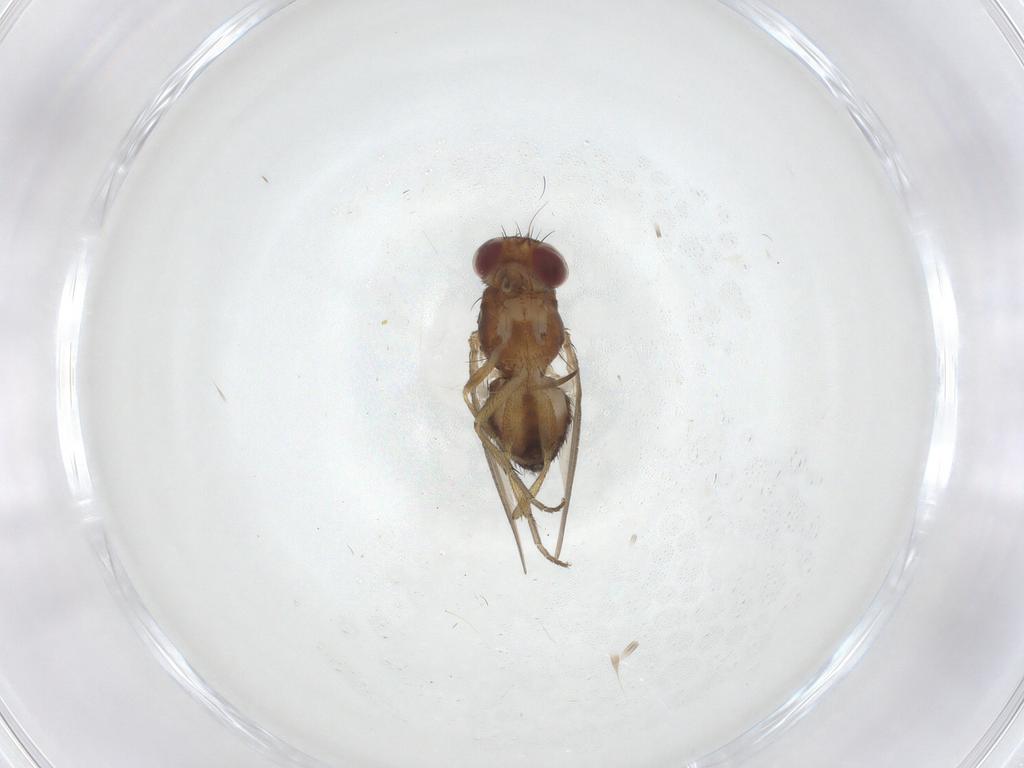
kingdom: Animalia
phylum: Arthropoda
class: Insecta
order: Diptera
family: Heleomyzidae
